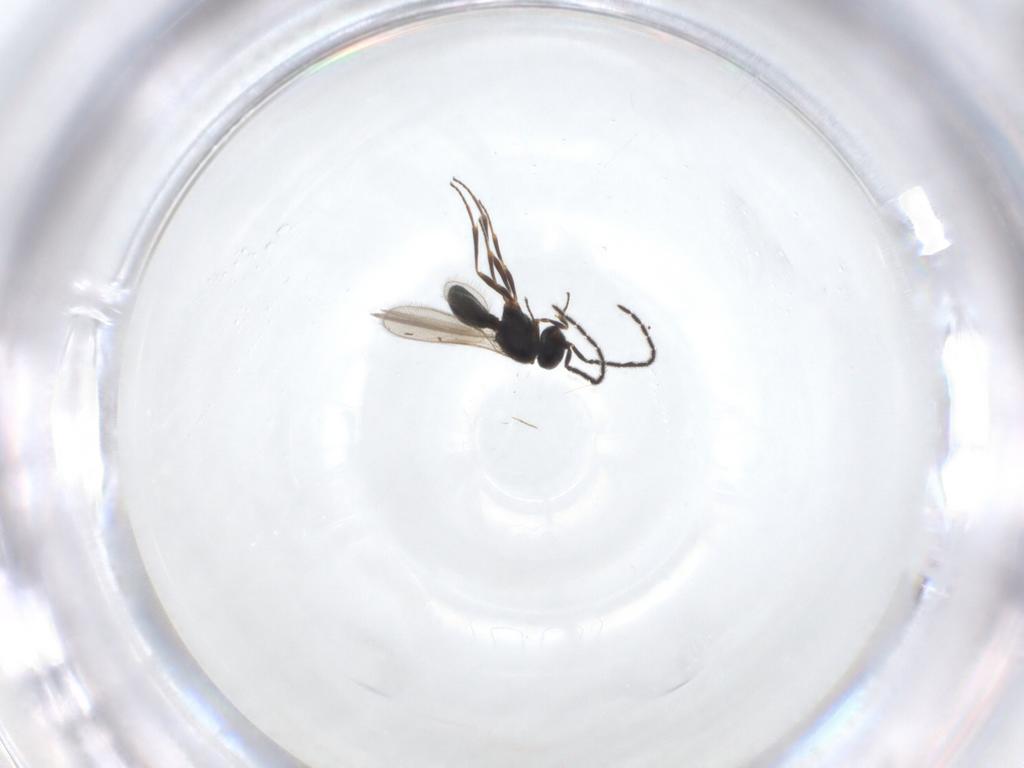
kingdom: Animalia
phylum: Arthropoda
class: Insecta
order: Hymenoptera
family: Scelionidae
